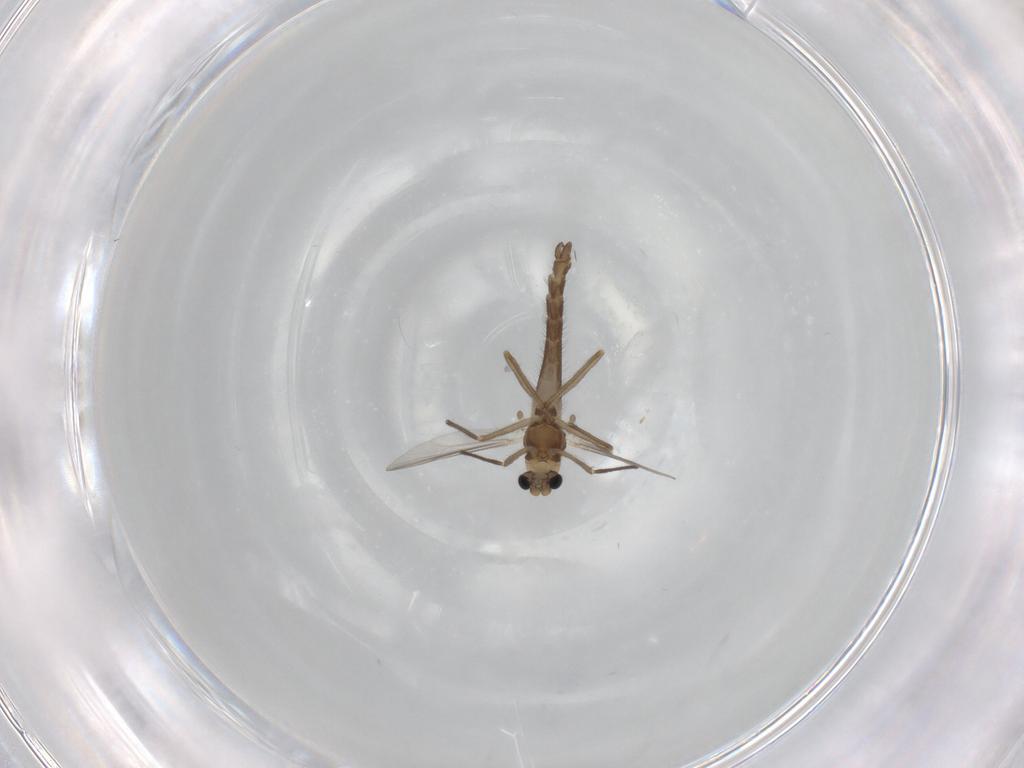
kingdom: Animalia
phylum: Arthropoda
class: Insecta
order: Diptera
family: Chironomidae
